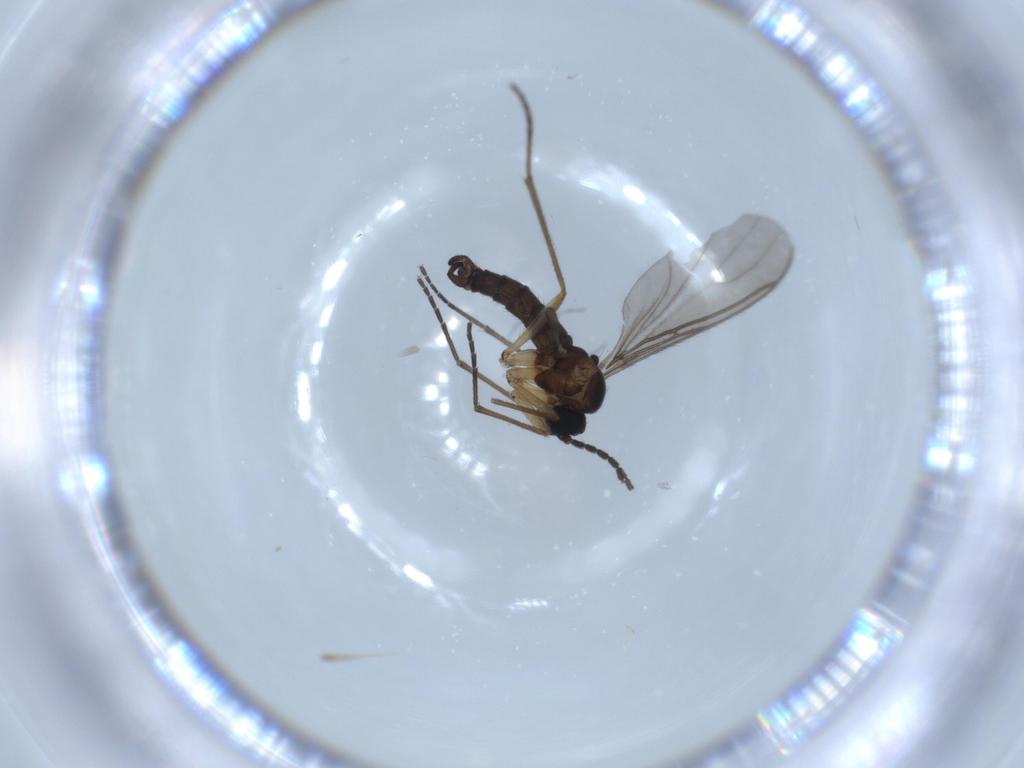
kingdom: Animalia
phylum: Arthropoda
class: Insecta
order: Diptera
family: Sciaridae
